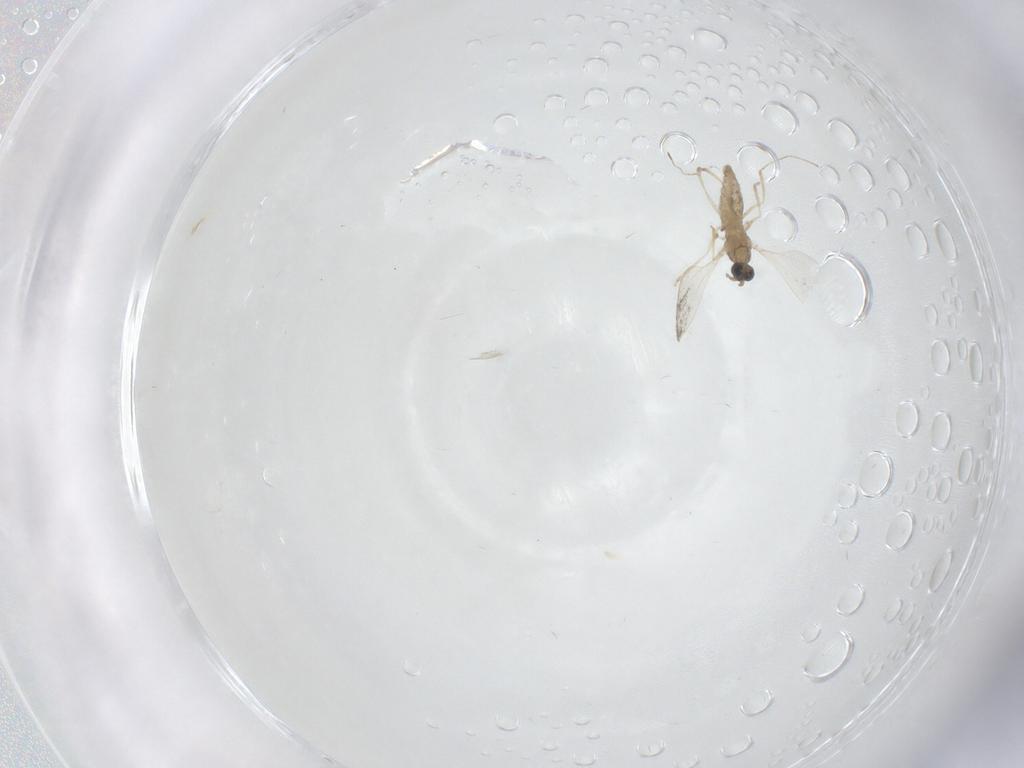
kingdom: Animalia
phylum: Arthropoda
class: Insecta
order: Diptera
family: Cecidomyiidae
